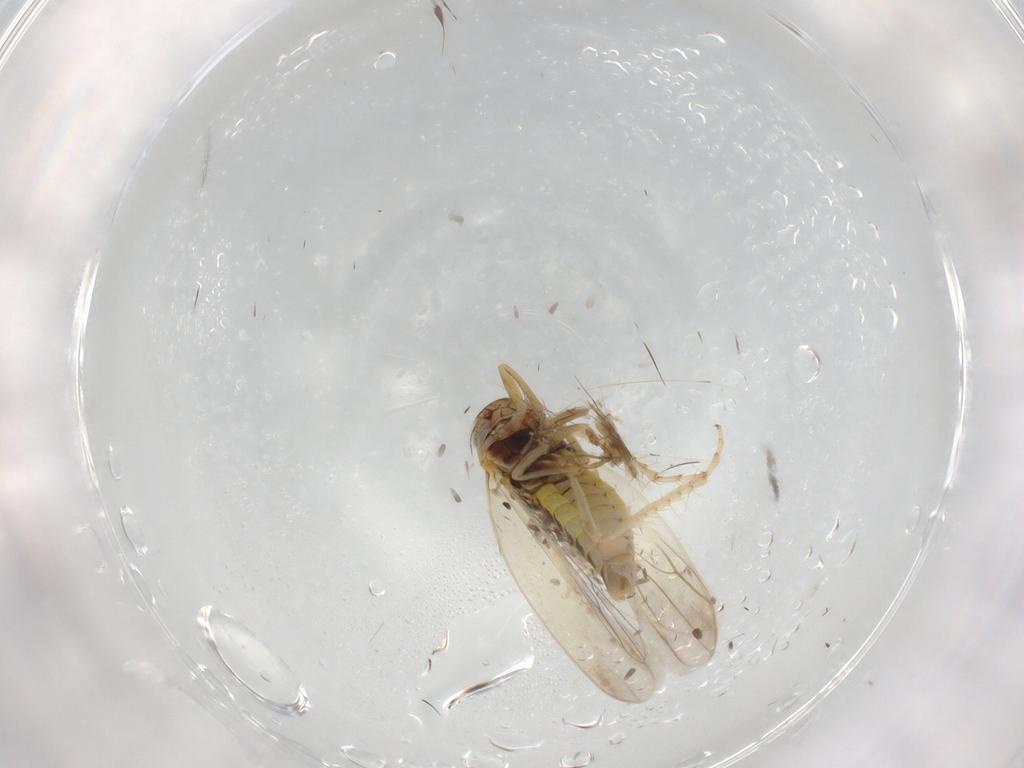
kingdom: Animalia
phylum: Arthropoda
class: Insecta
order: Hemiptera
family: Cicadellidae
